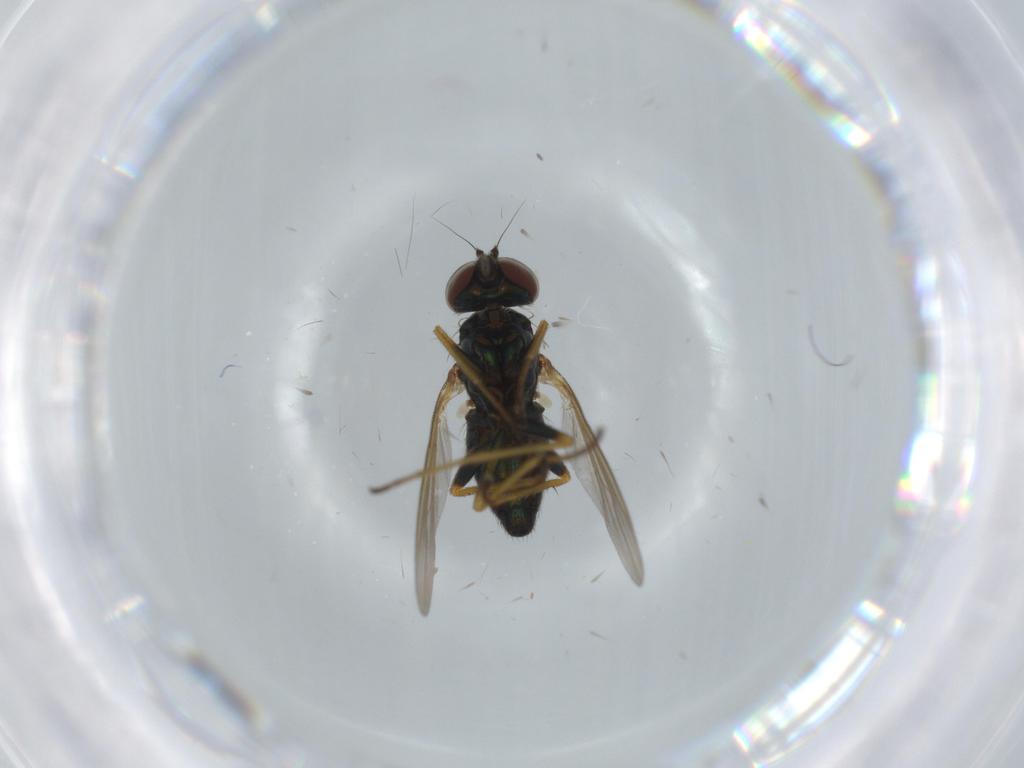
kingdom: Animalia
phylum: Arthropoda
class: Insecta
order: Diptera
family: Dolichopodidae
